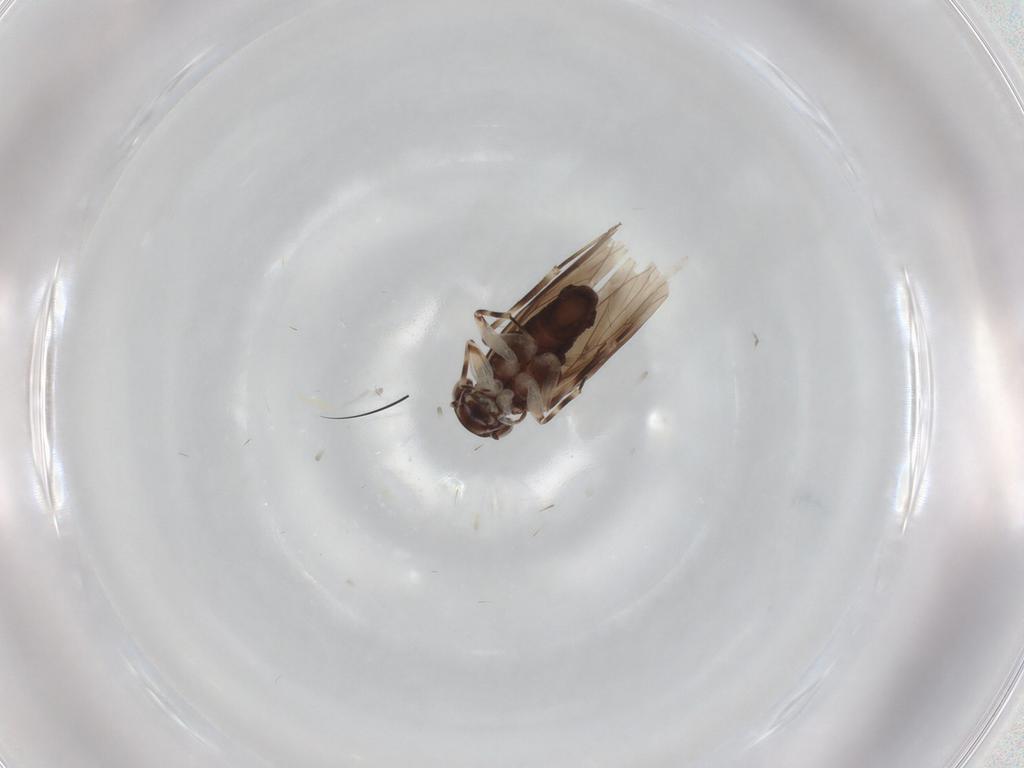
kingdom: Animalia
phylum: Arthropoda
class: Insecta
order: Psocodea
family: Amphientomidae
